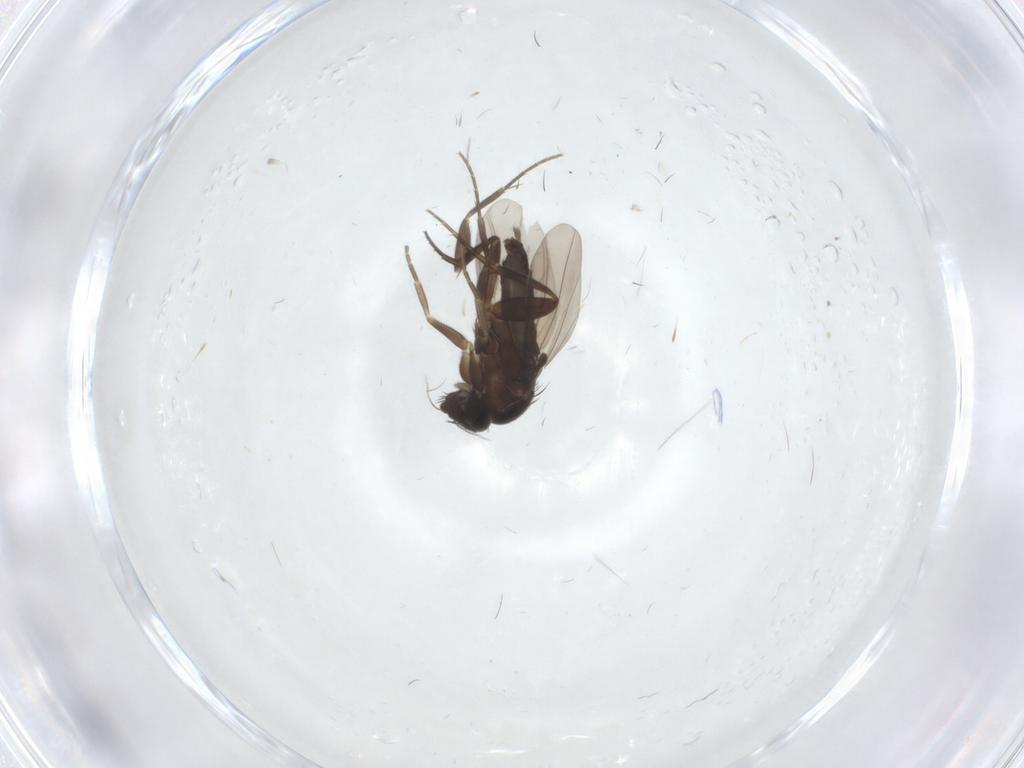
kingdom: Animalia
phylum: Arthropoda
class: Insecta
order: Diptera
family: Phoridae
